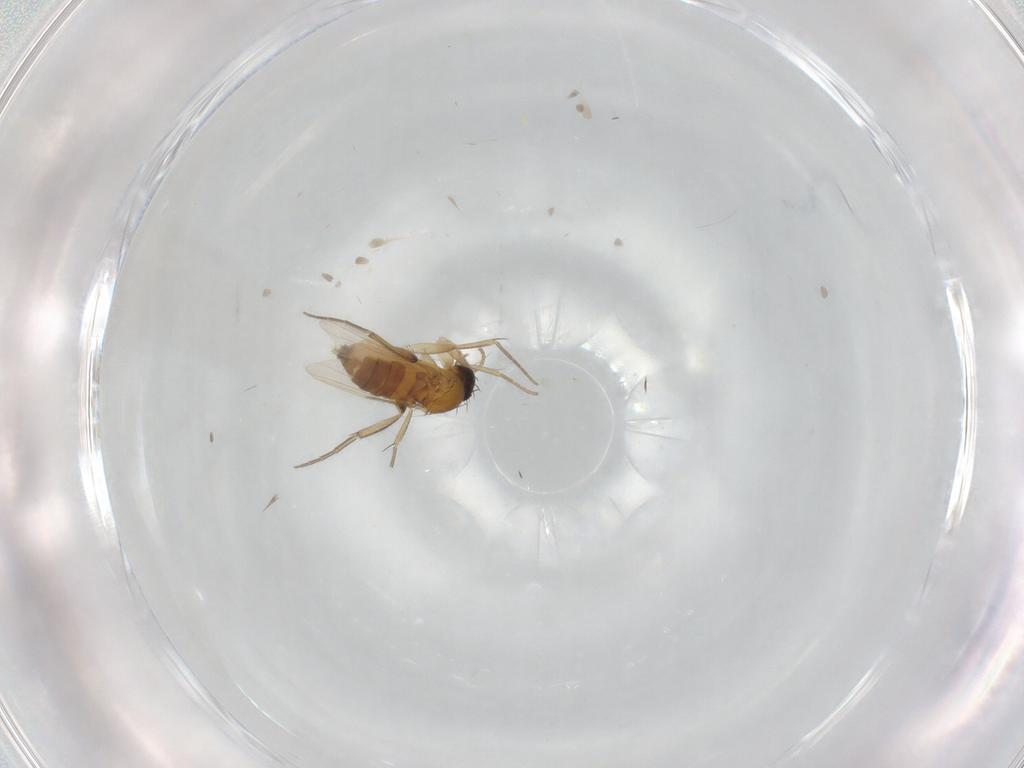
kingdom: Animalia
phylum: Arthropoda
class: Insecta
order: Diptera
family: Phoridae
